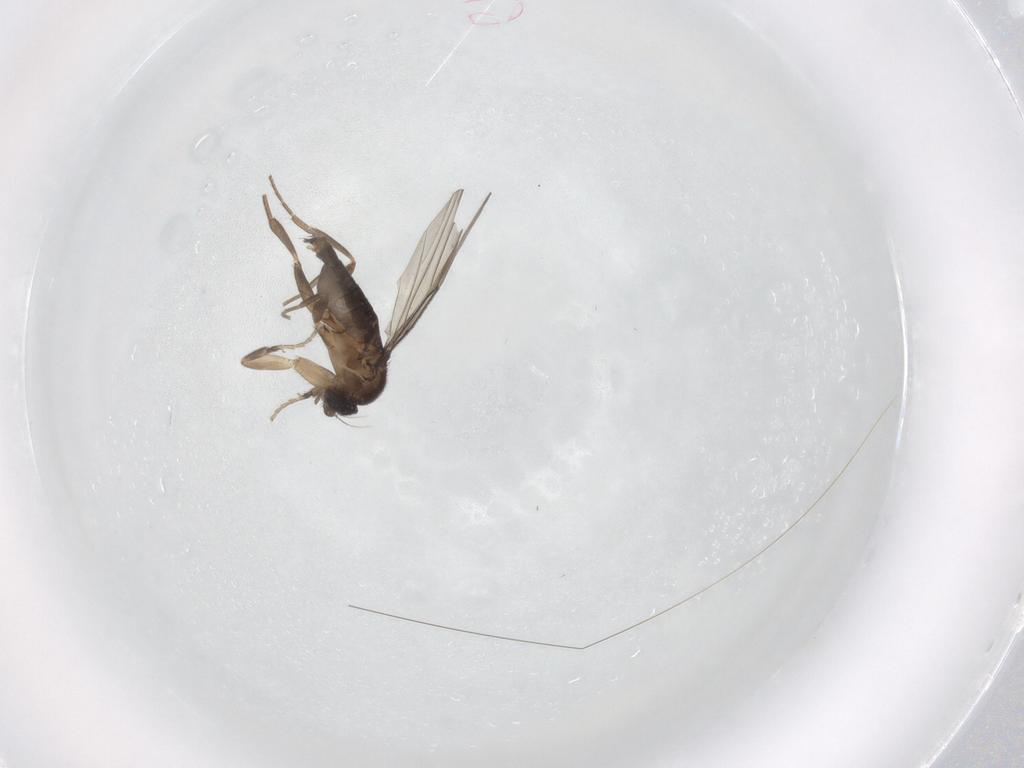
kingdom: Animalia
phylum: Arthropoda
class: Insecta
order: Diptera
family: Phoridae
